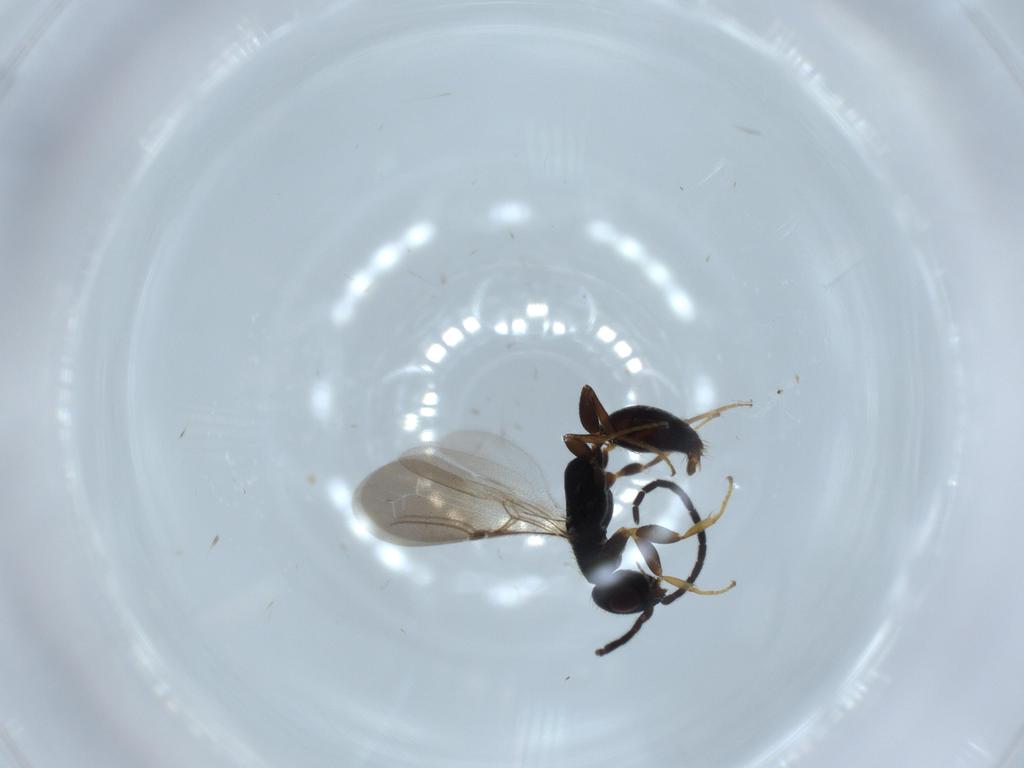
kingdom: Animalia
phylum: Arthropoda
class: Insecta
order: Hymenoptera
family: Bethylidae
